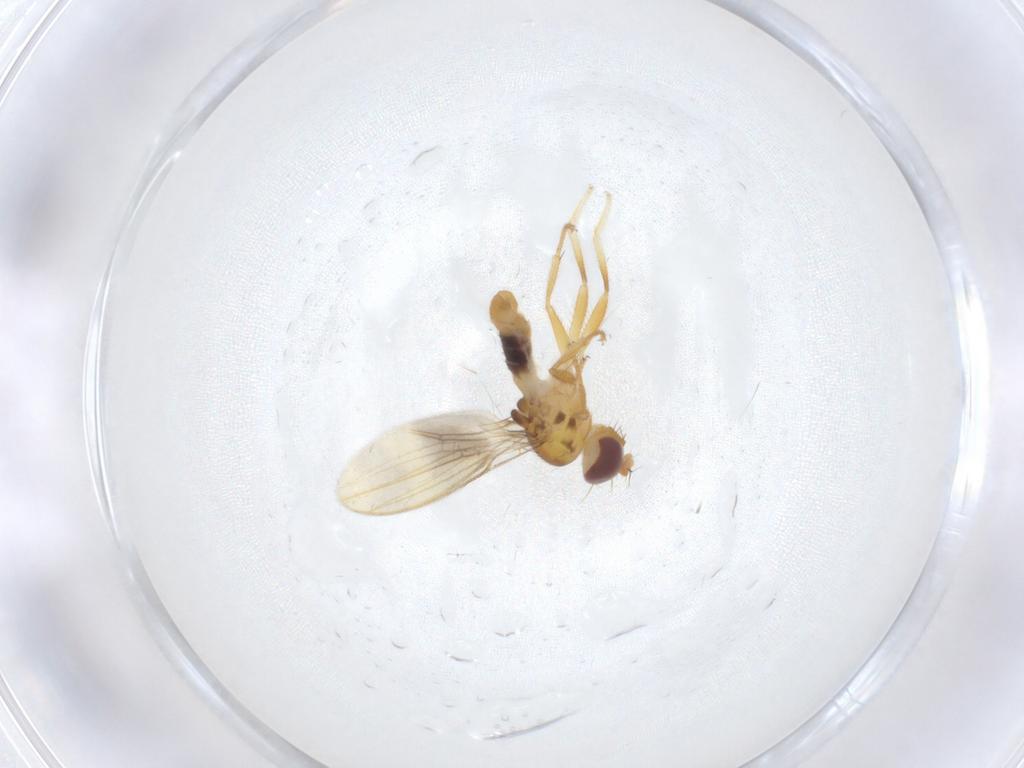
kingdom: Animalia
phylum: Arthropoda
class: Insecta
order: Diptera
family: Periscelididae
